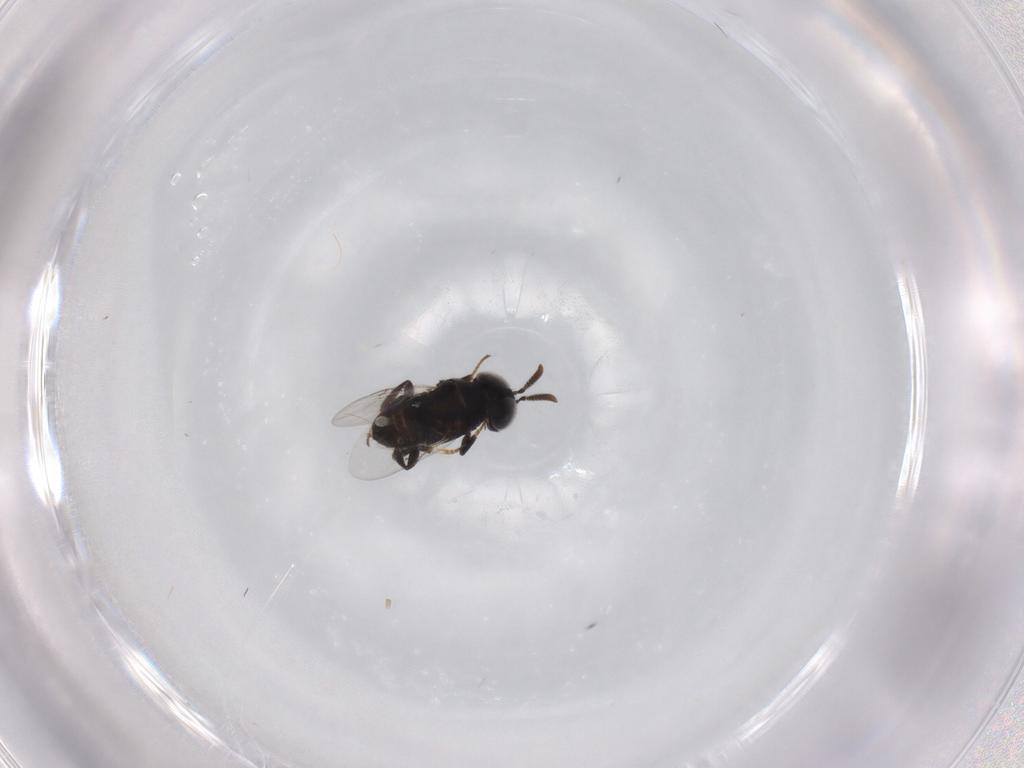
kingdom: Animalia
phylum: Arthropoda
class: Insecta
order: Hymenoptera
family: Encyrtidae
